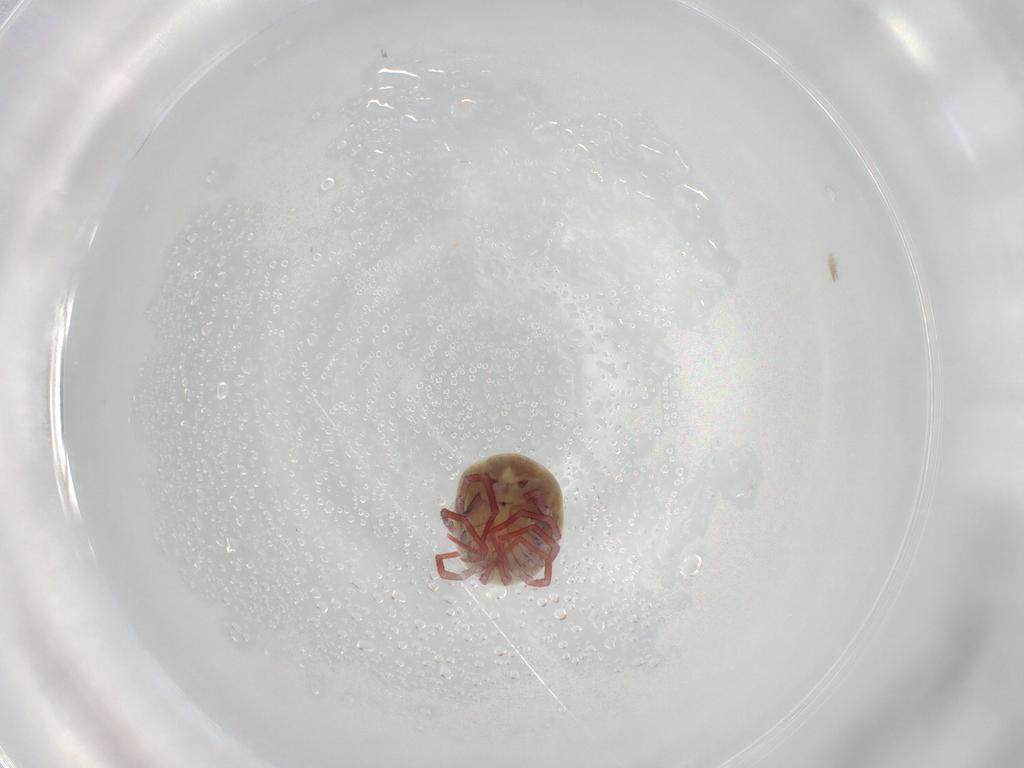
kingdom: Animalia
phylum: Arthropoda
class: Arachnida
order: Trombidiformes
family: Pionidae
